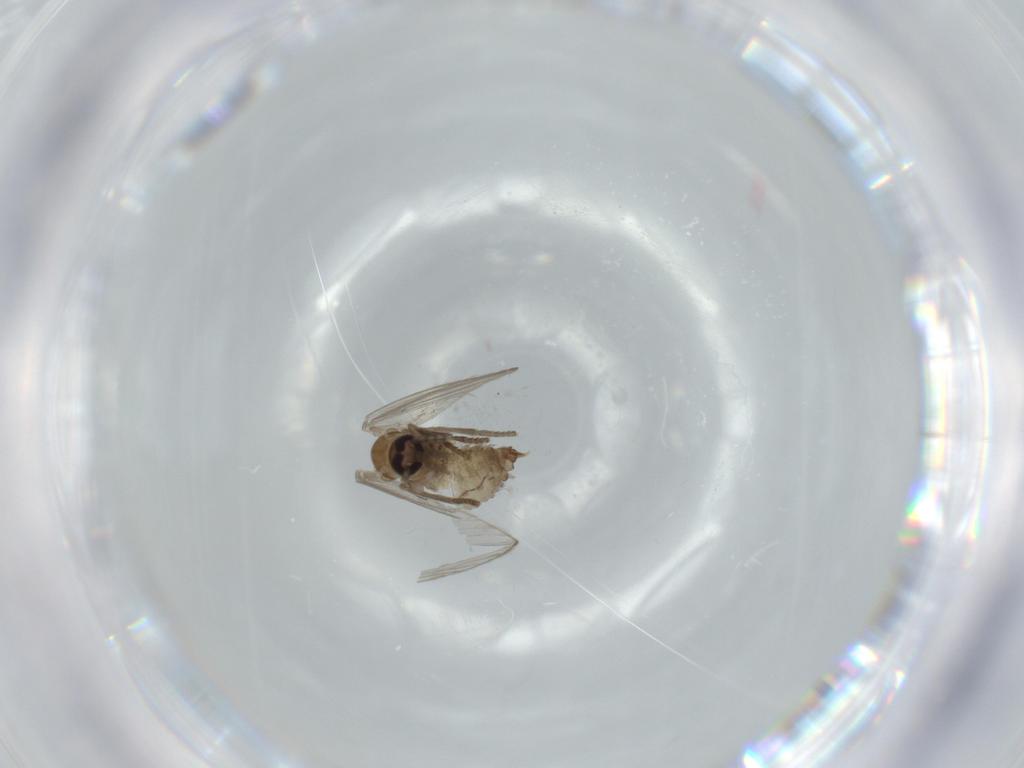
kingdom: Animalia
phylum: Arthropoda
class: Insecta
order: Diptera
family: Psychodidae
